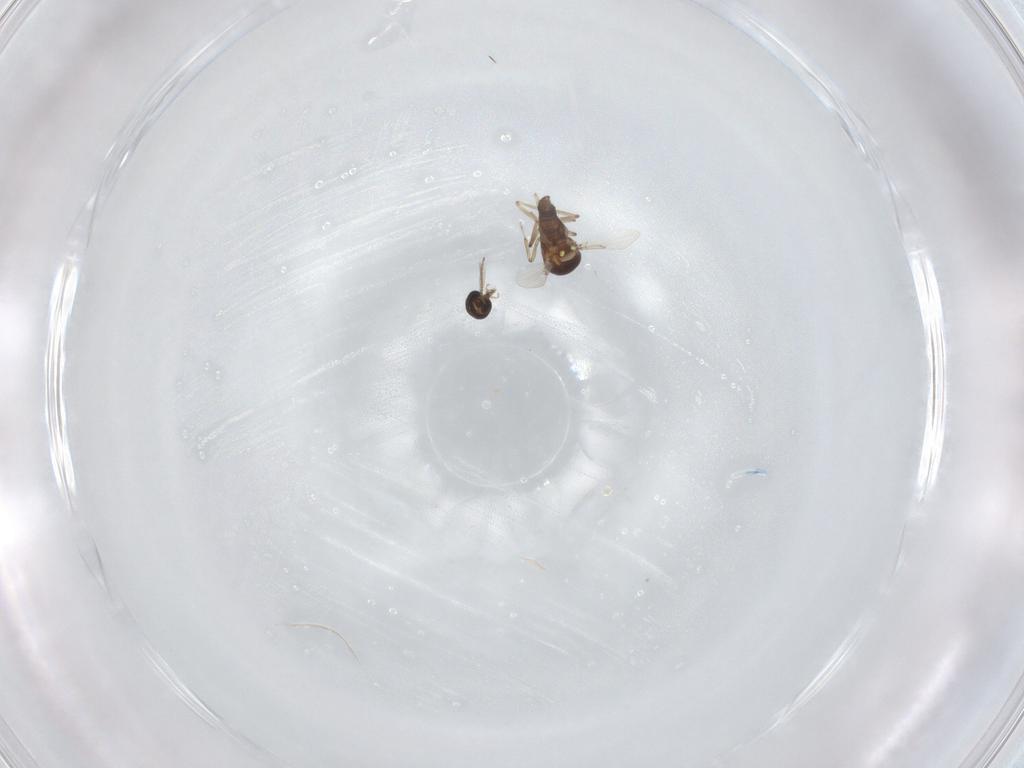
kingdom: Animalia
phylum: Arthropoda
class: Insecta
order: Diptera
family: Ceratopogonidae
